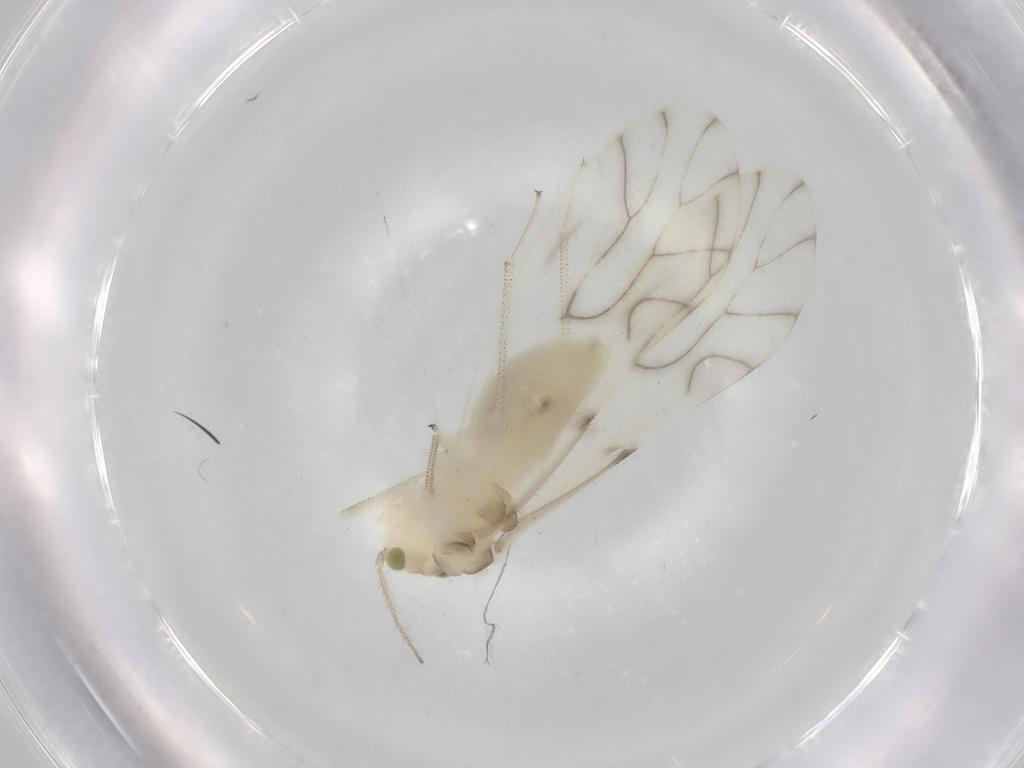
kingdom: Animalia
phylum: Arthropoda
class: Insecta
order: Psocodea
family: Caeciliusidae
